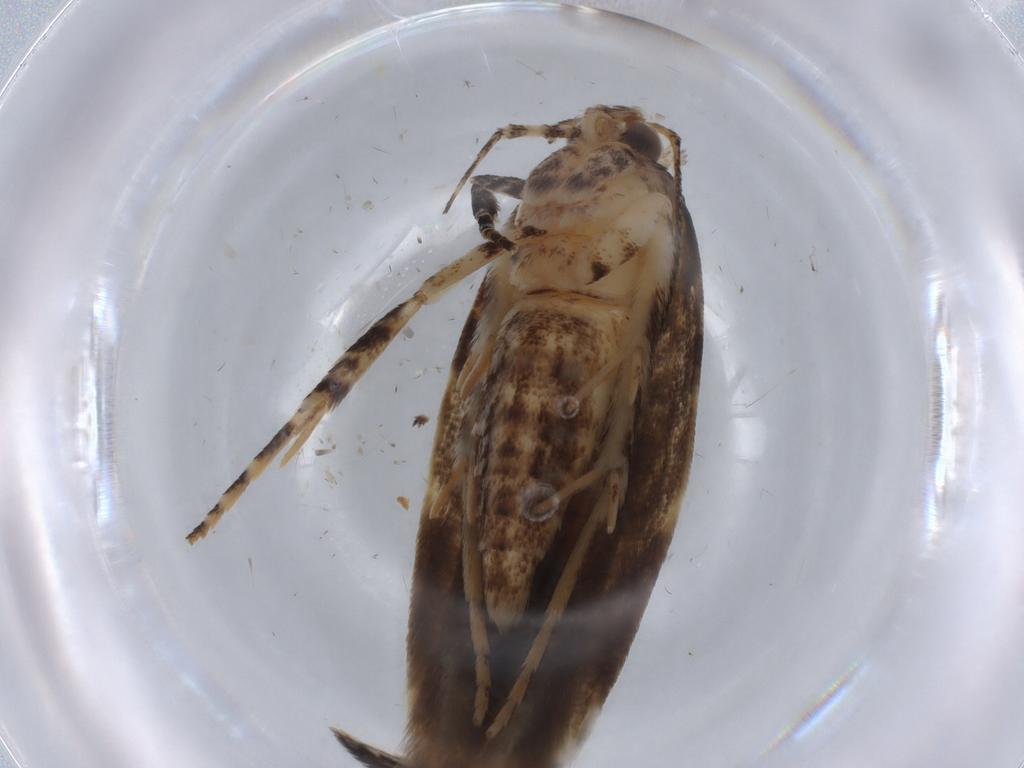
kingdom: Animalia
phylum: Arthropoda
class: Insecta
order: Lepidoptera
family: Gelechiidae
